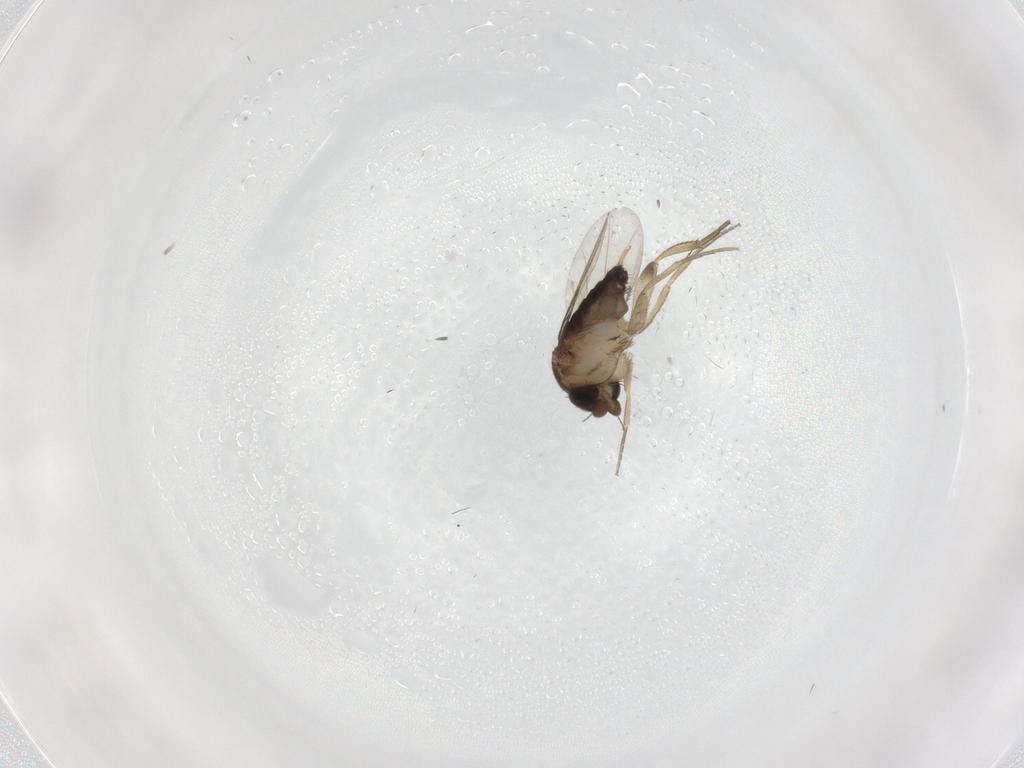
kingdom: Animalia
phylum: Arthropoda
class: Insecta
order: Diptera
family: Phoridae
